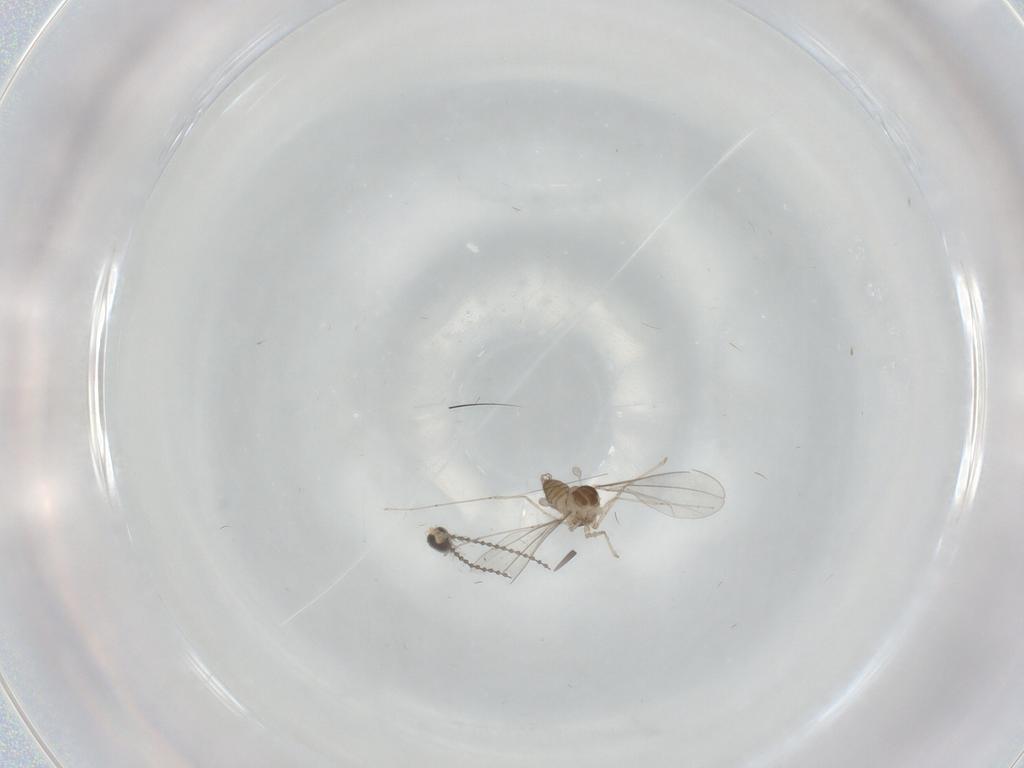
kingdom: Animalia
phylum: Arthropoda
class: Insecta
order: Diptera
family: Cecidomyiidae
